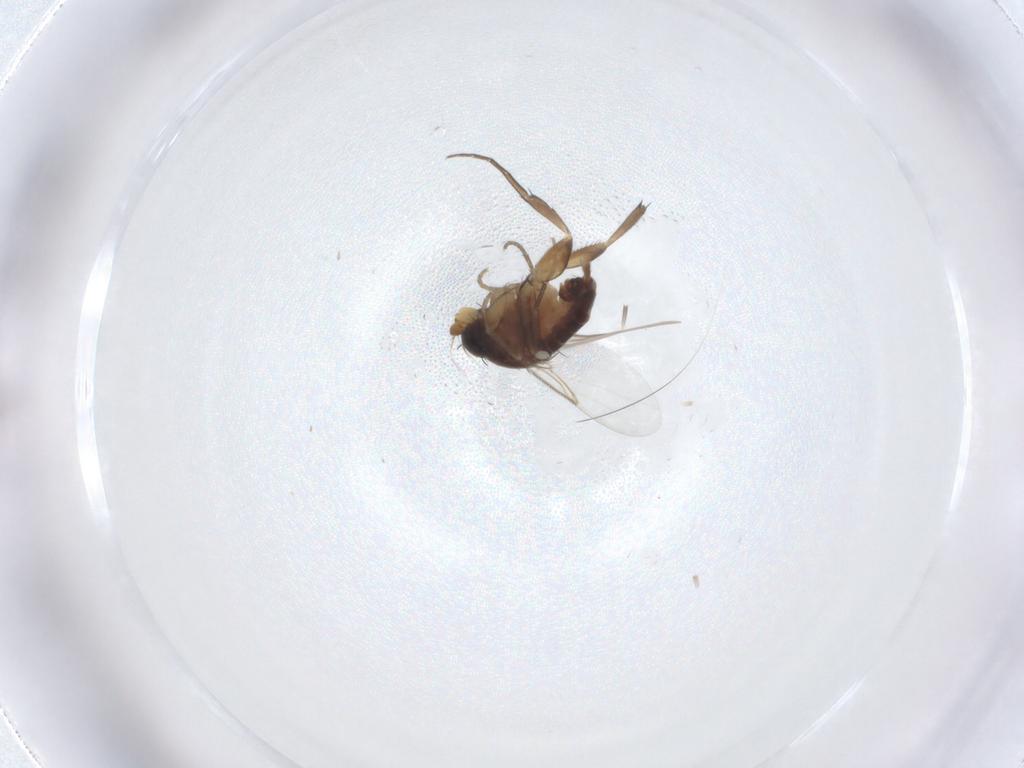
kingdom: Animalia
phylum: Arthropoda
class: Insecta
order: Diptera
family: Phoridae
